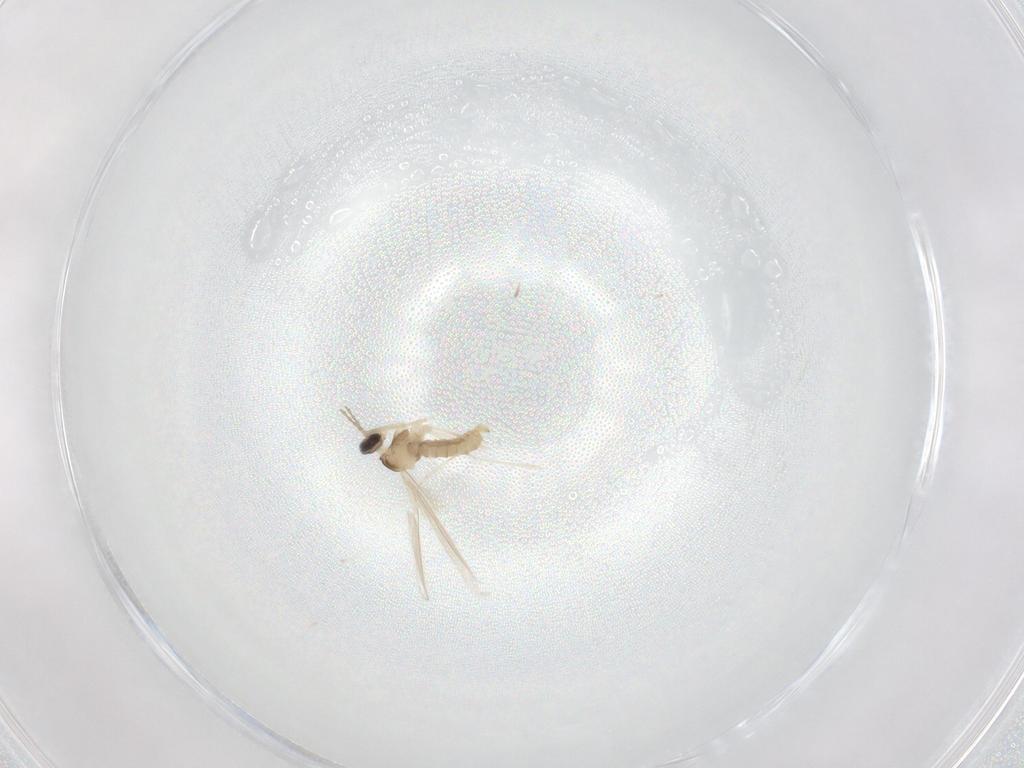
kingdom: Animalia
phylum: Arthropoda
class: Insecta
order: Diptera
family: Cecidomyiidae
